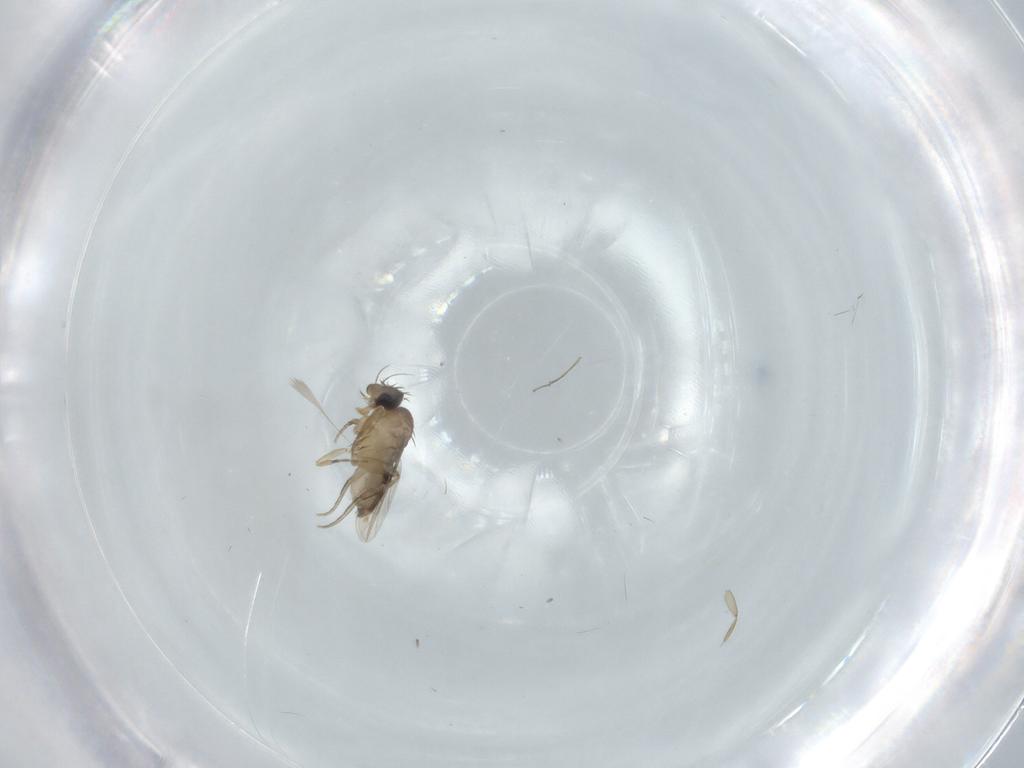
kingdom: Animalia
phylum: Arthropoda
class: Insecta
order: Diptera
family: Phoridae
